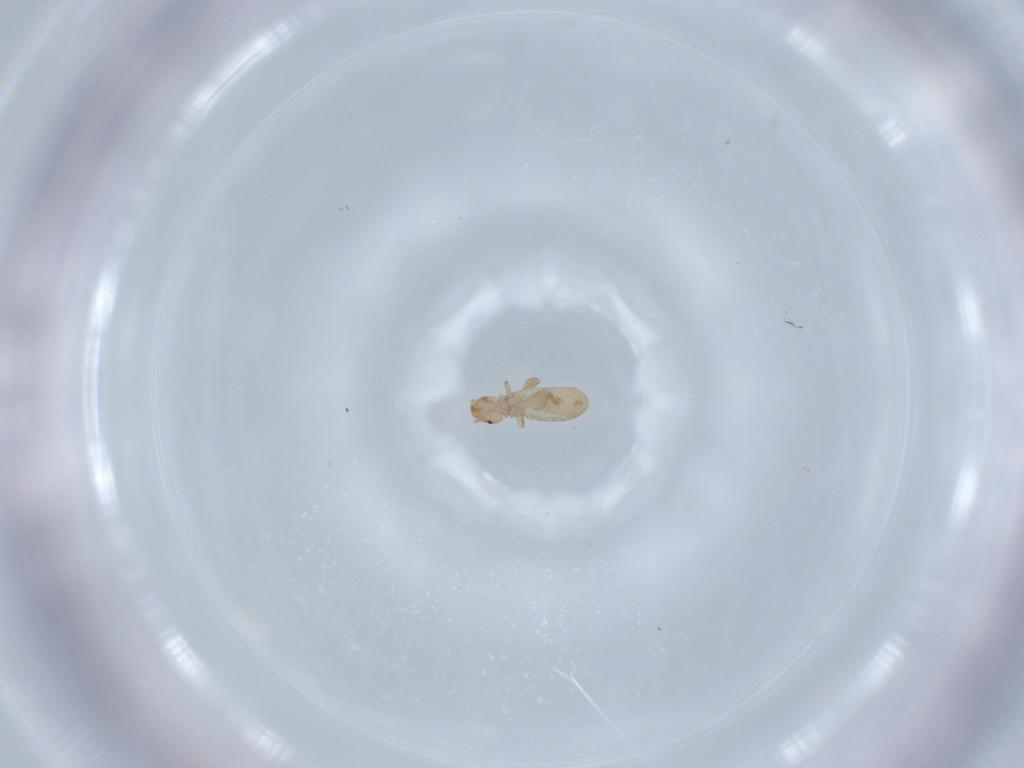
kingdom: Animalia
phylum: Arthropoda
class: Insecta
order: Psocodea
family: Liposcelididae
